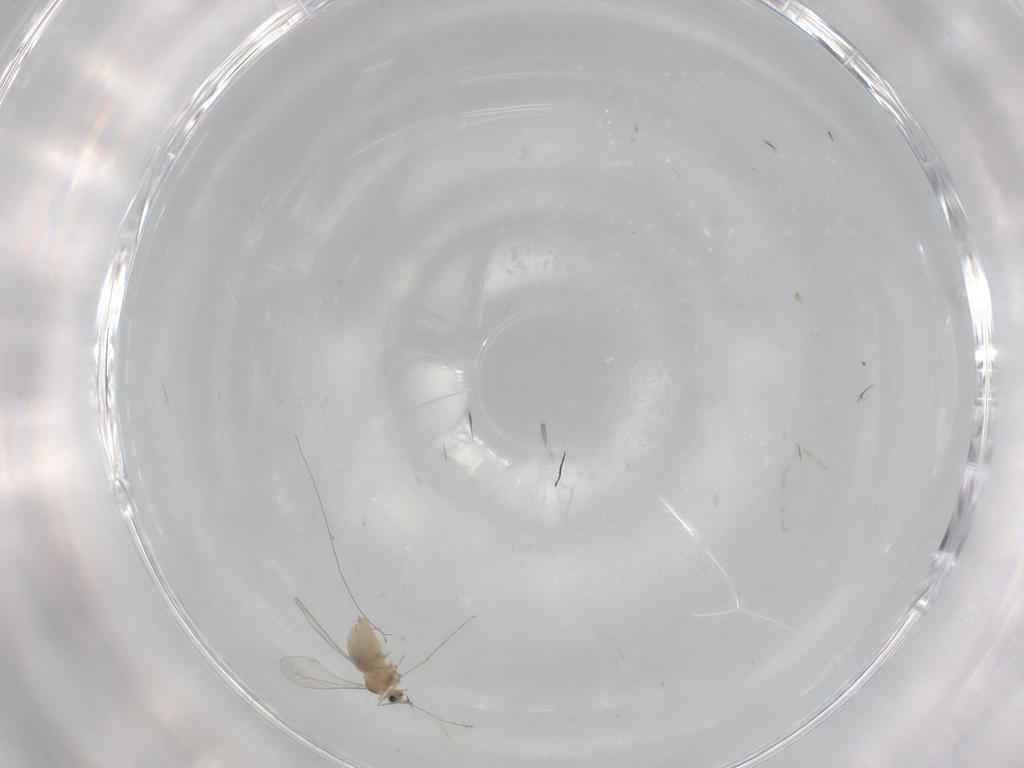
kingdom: Animalia
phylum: Arthropoda
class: Insecta
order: Diptera
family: Cecidomyiidae
